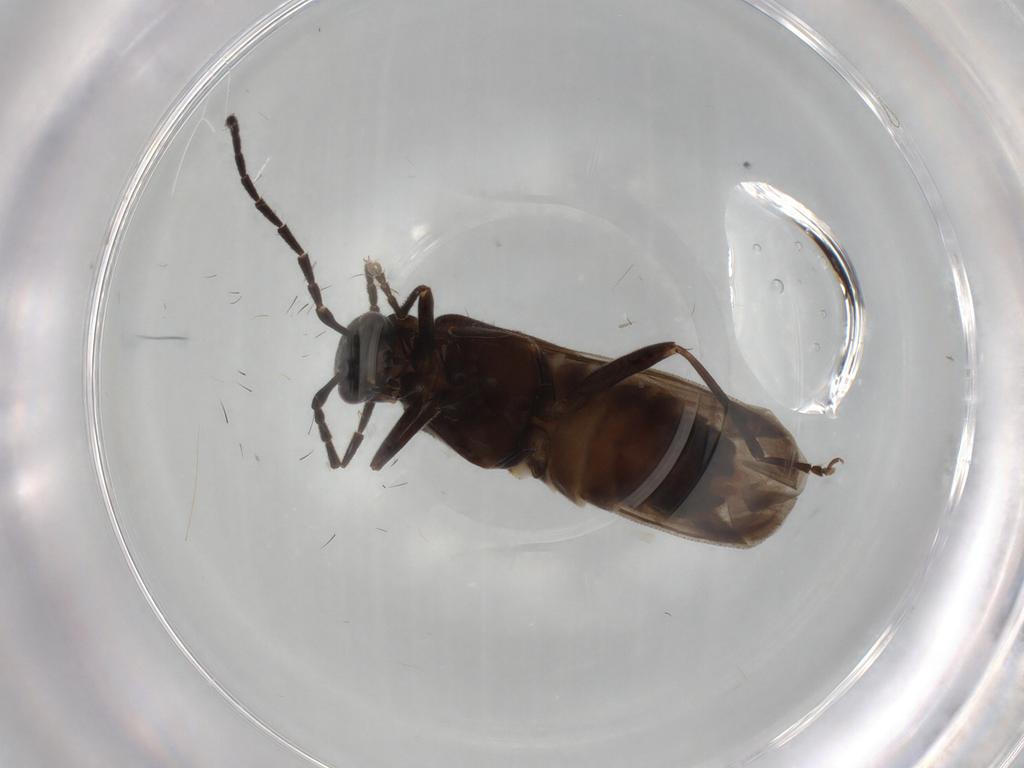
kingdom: Animalia
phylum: Arthropoda
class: Insecta
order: Coleoptera
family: Cantharidae
